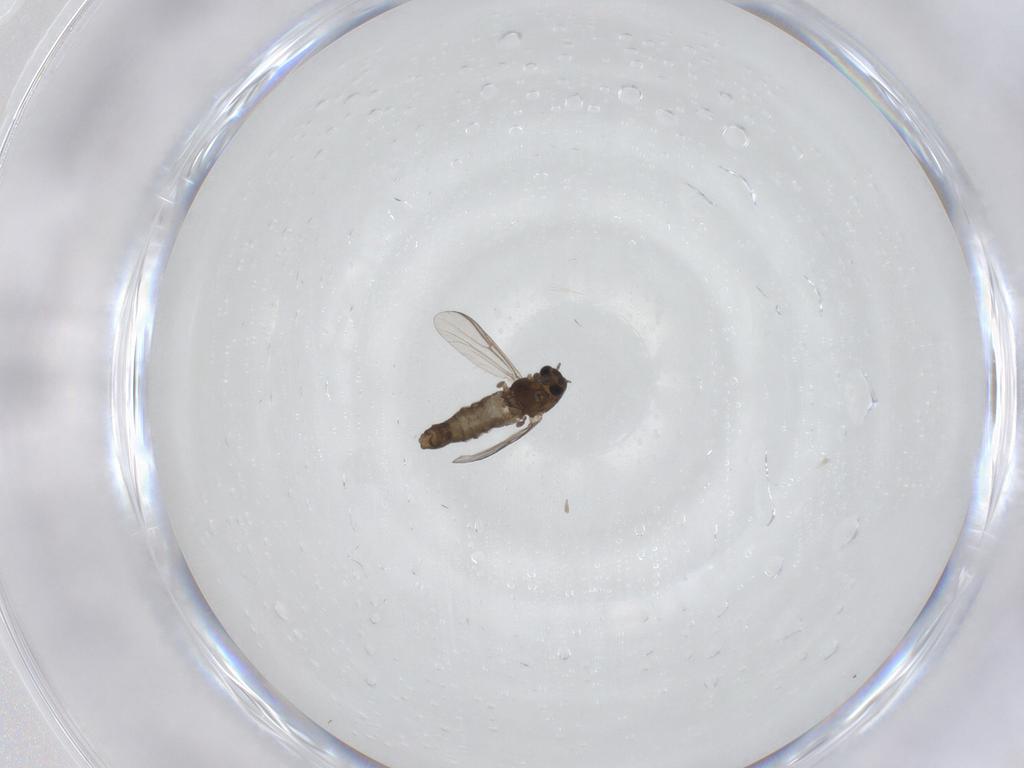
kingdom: Animalia
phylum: Arthropoda
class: Insecta
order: Diptera
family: Chironomidae
